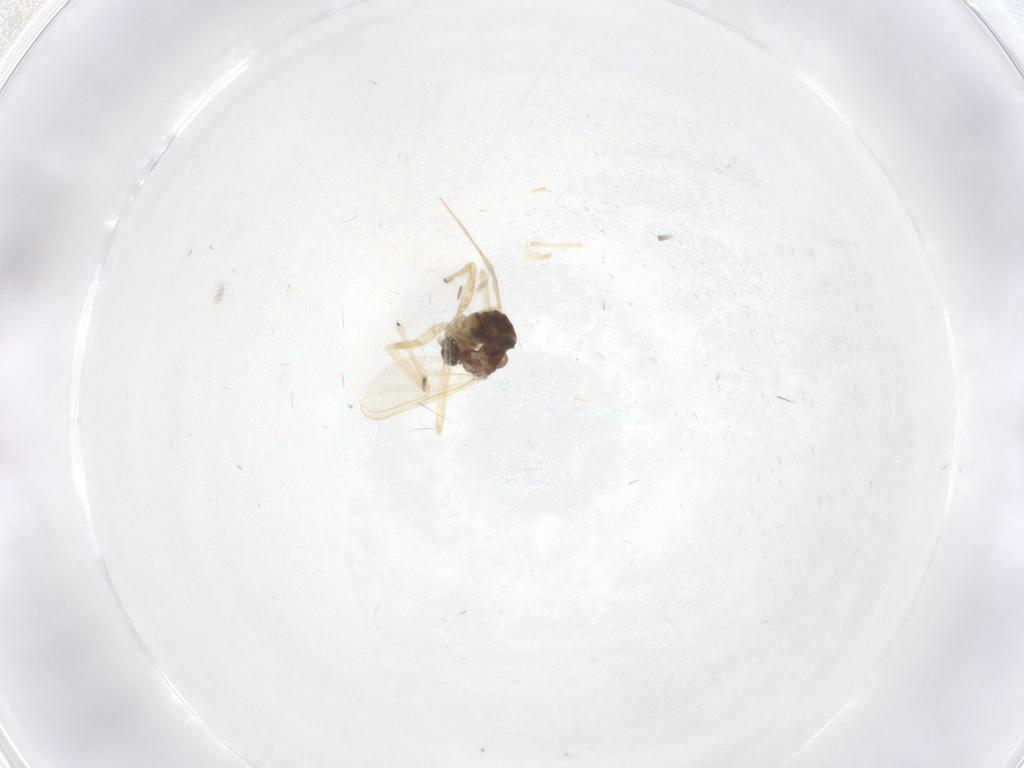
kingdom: Animalia
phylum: Arthropoda
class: Insecta
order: Diptera
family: Chironomidae
